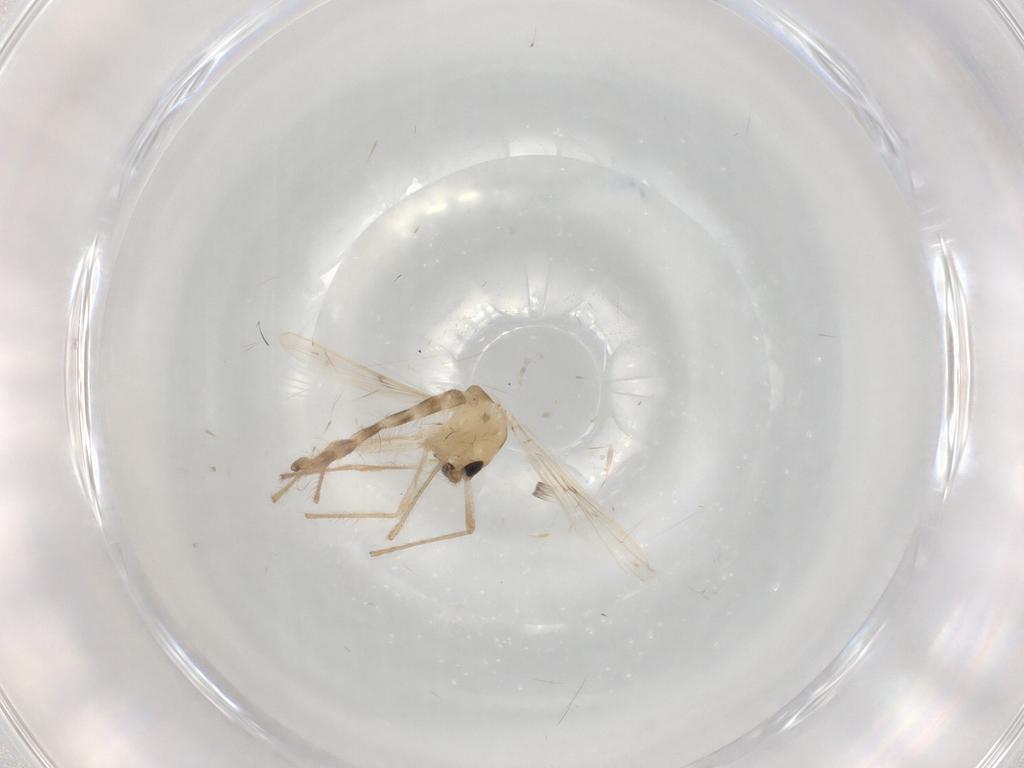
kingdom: Animalia
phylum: Arthropoda
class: Insecta
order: Diptera
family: Chironomidae
